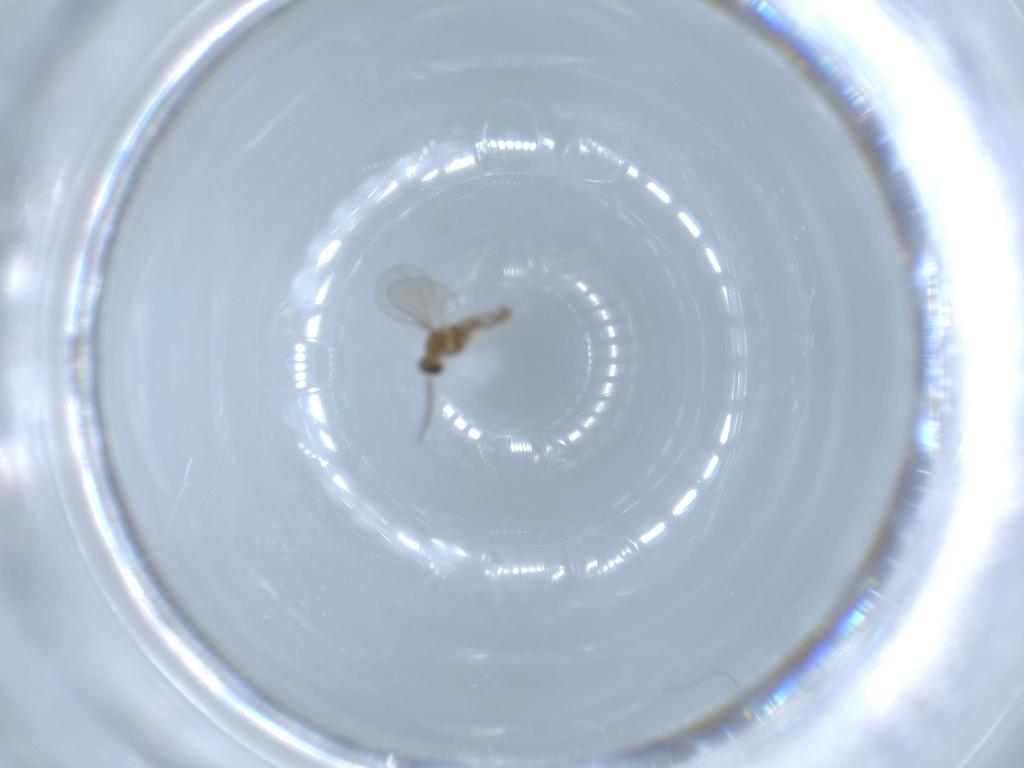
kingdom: Animalia
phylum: Arthropoda
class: Insecta
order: Diptera
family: Cecidomyiidae
